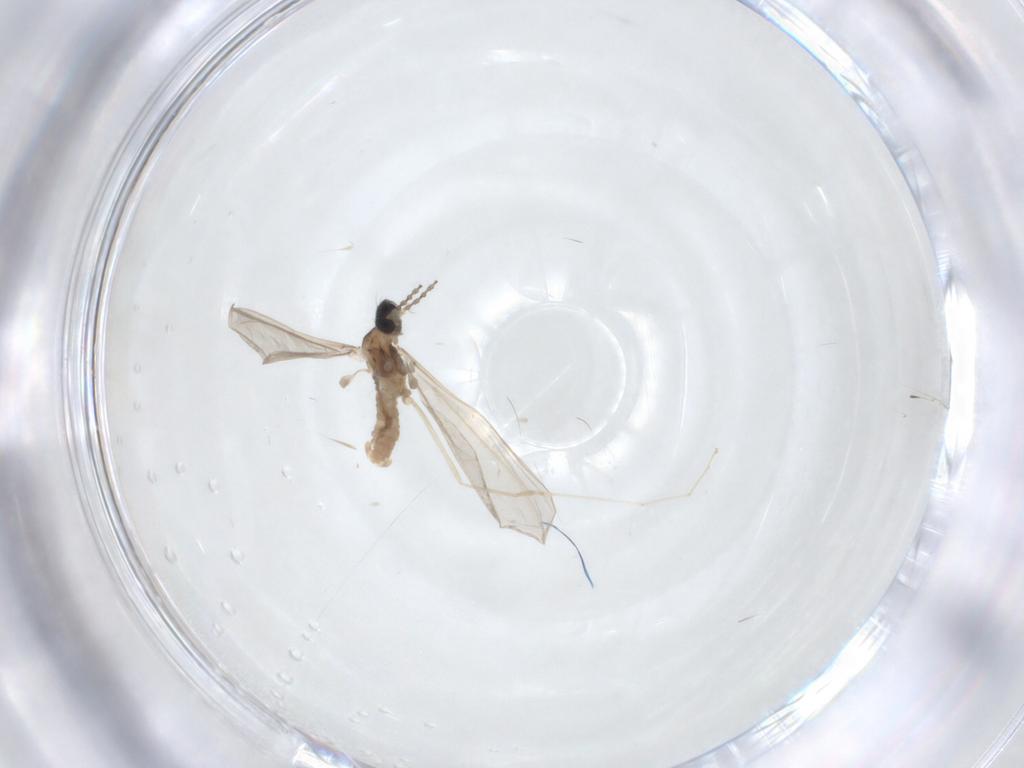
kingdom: Animalia
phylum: Arthropoda
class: Insecta
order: Diptera
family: Cecidomyiidae
